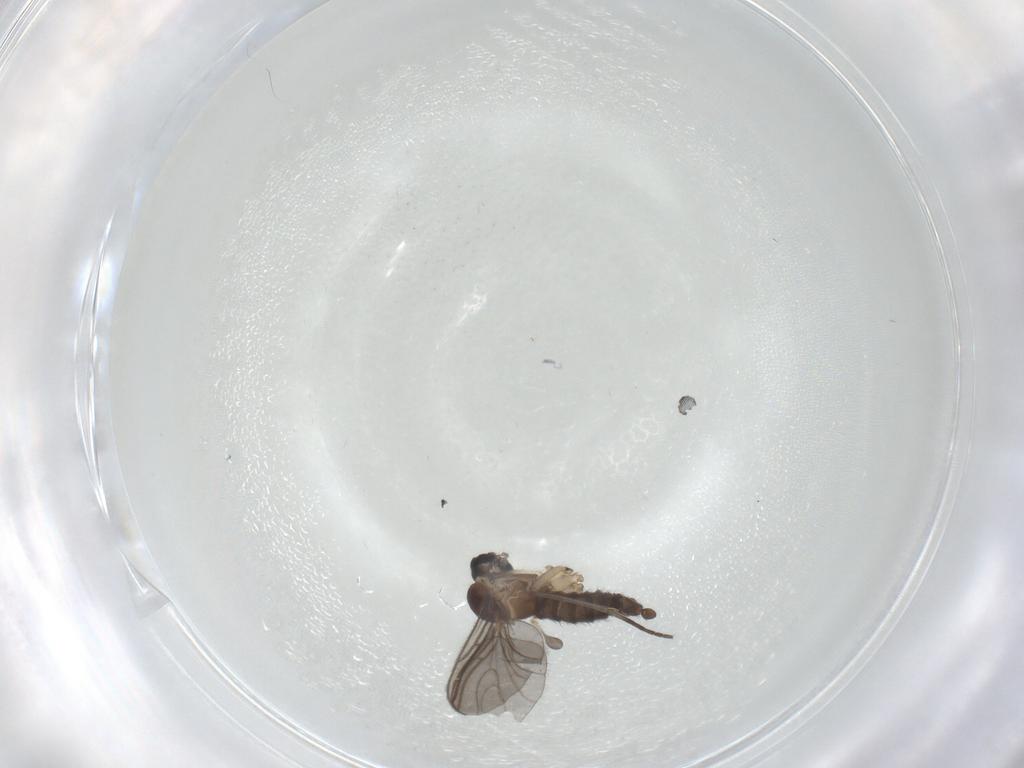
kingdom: Animalia
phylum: Arthropoda
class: Insecta
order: Diptera
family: Sciaridae
